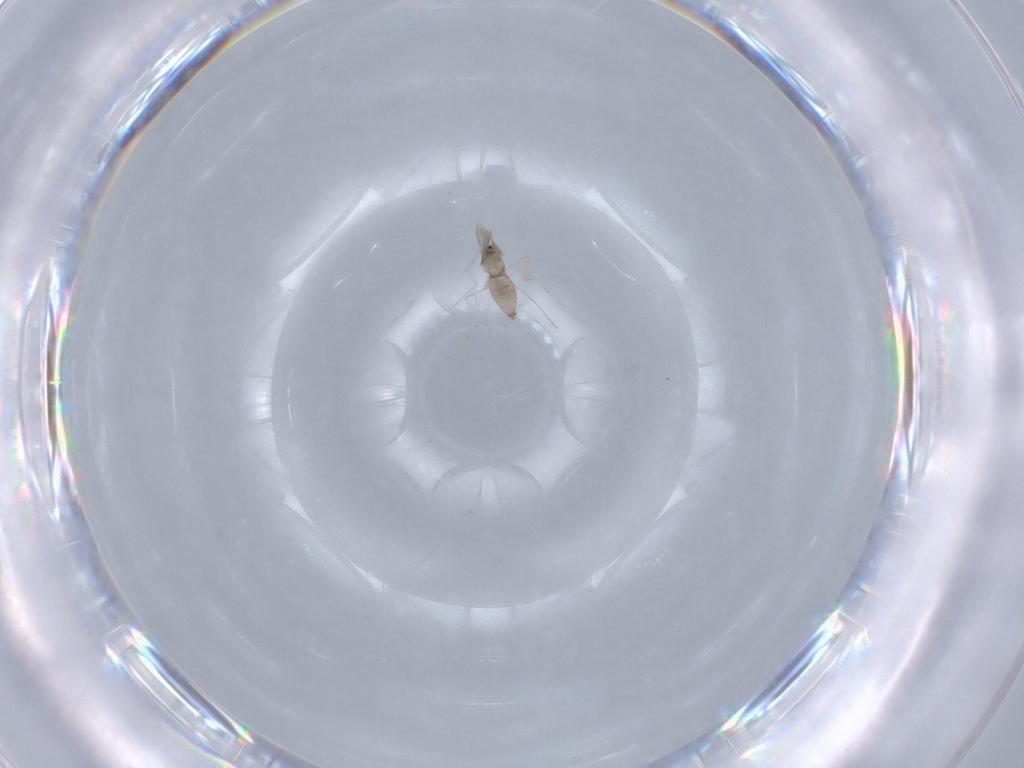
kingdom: Animalia
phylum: Arthropoda
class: Insecta
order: Diptera
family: Cecidomyiidae
